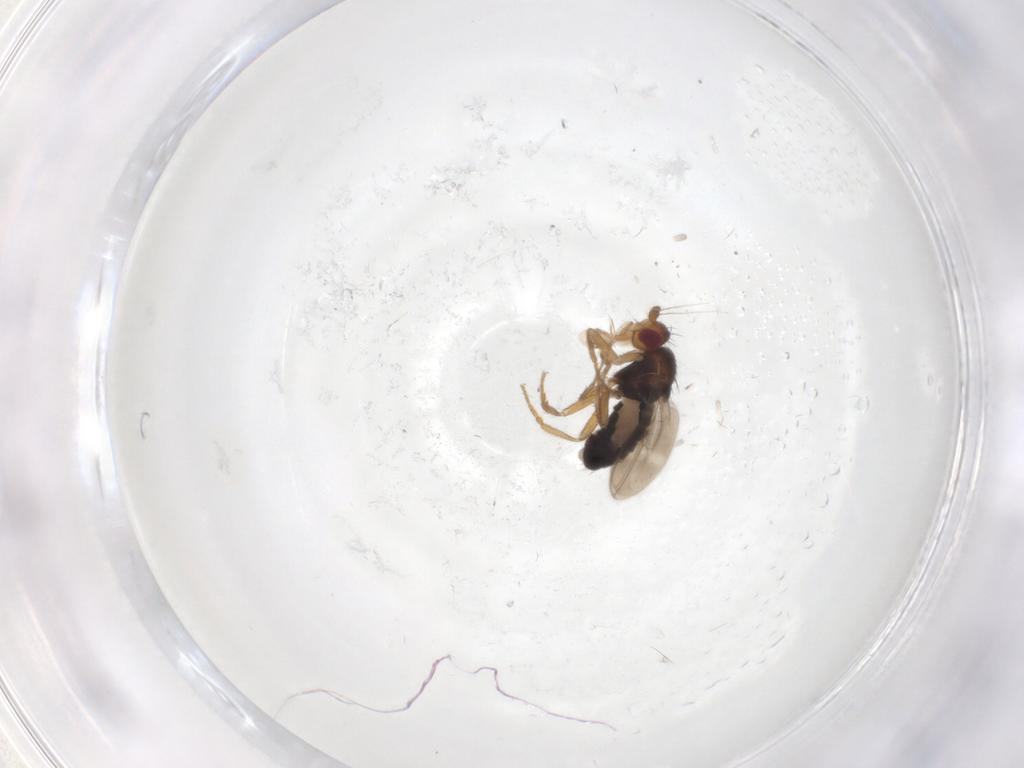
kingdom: Animalia
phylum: Arthropoda
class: Insecta
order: Diptera
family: Sphaeroceridae
